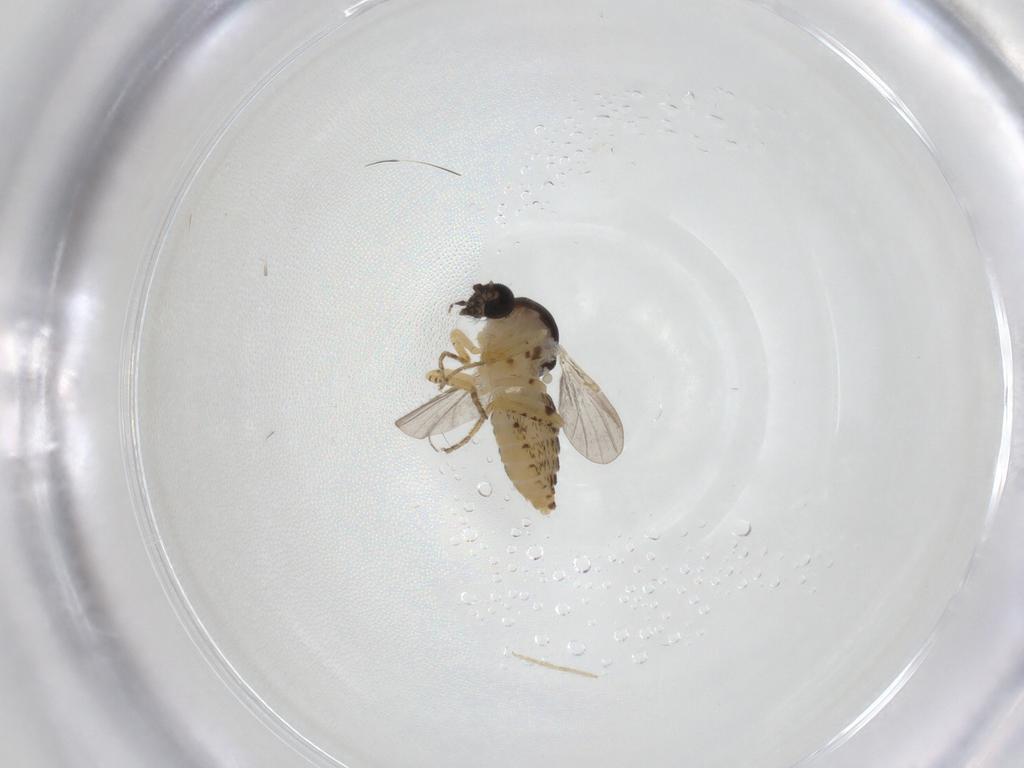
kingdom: Animalia
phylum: Arthropoda
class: Insecta
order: Diptera
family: Ceratopogonidae
